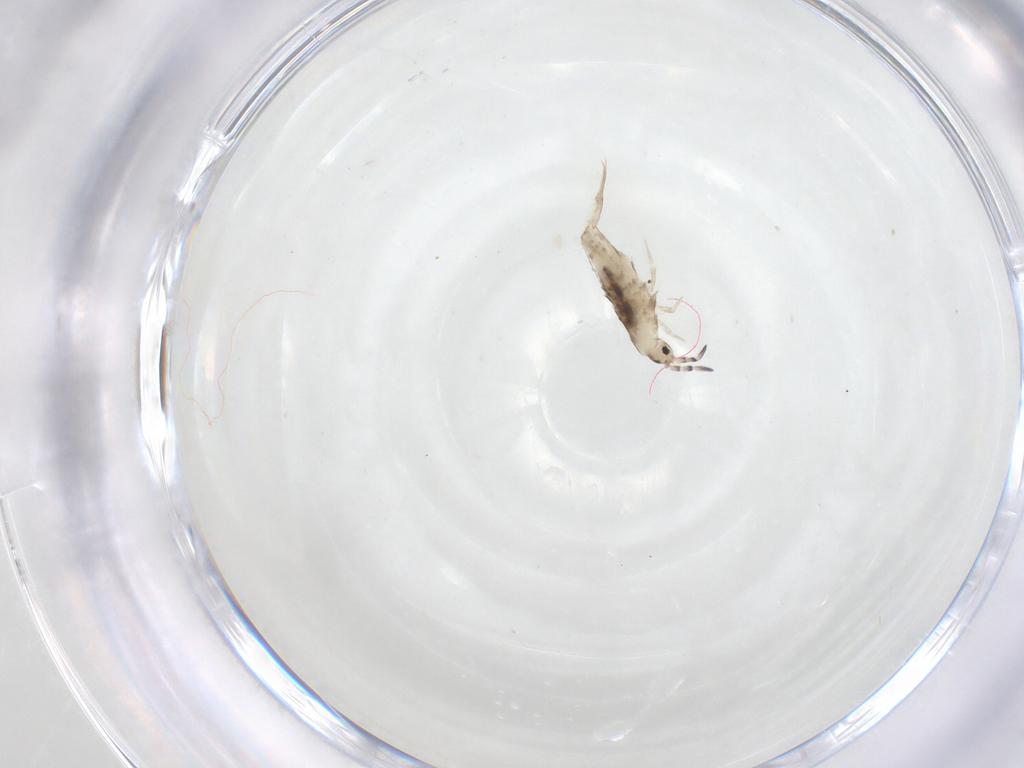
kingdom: Animalia
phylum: Arthropoda
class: Collembola
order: Entomobryomorpha
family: Entomobryidae
